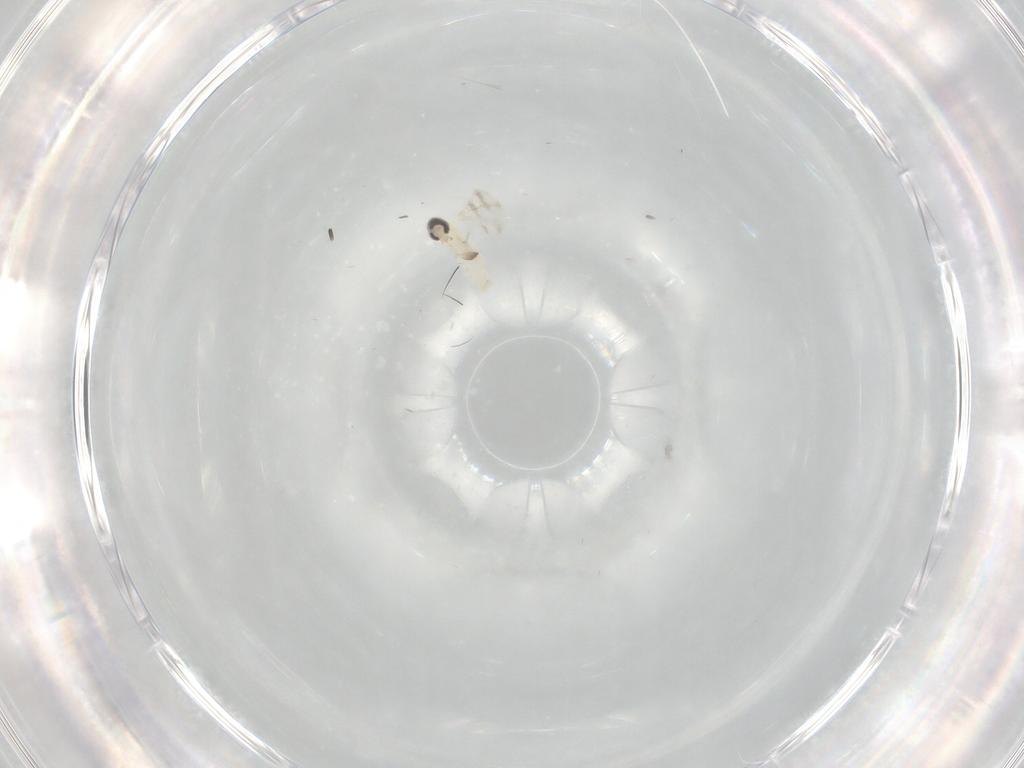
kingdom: Animalia
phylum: Arthropoda
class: Insecta
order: Diptera
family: Cecidomyiidae
